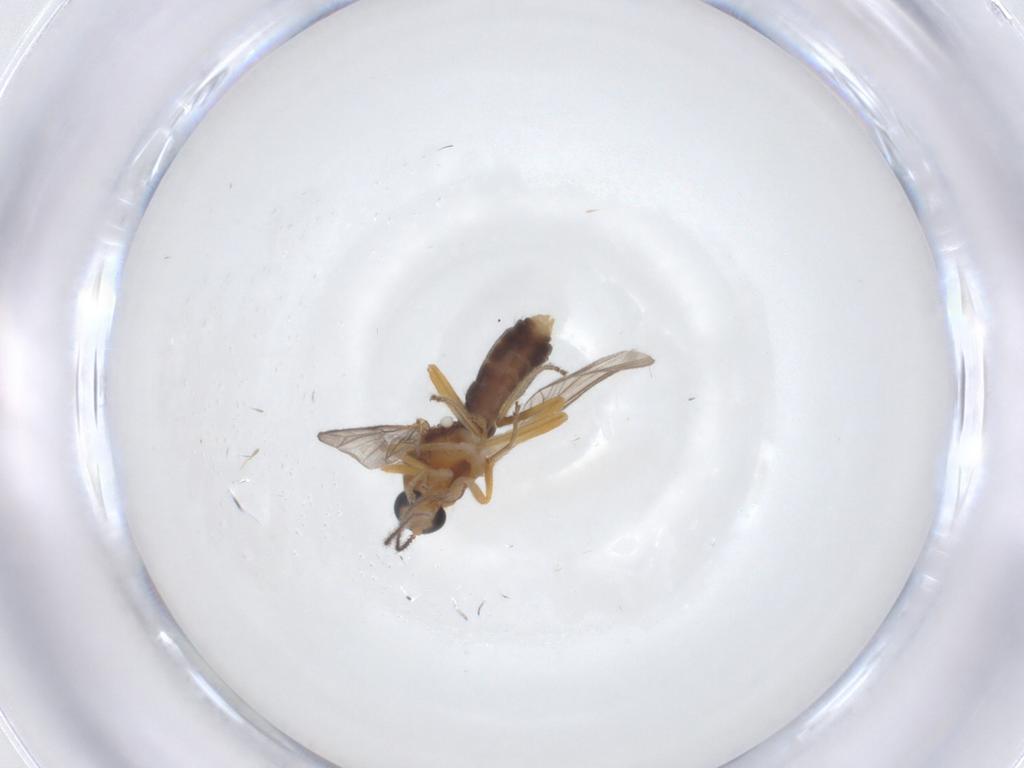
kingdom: Animalia
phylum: Arthropoda
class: Insecta
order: Diptera
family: Ceratopogonidae
